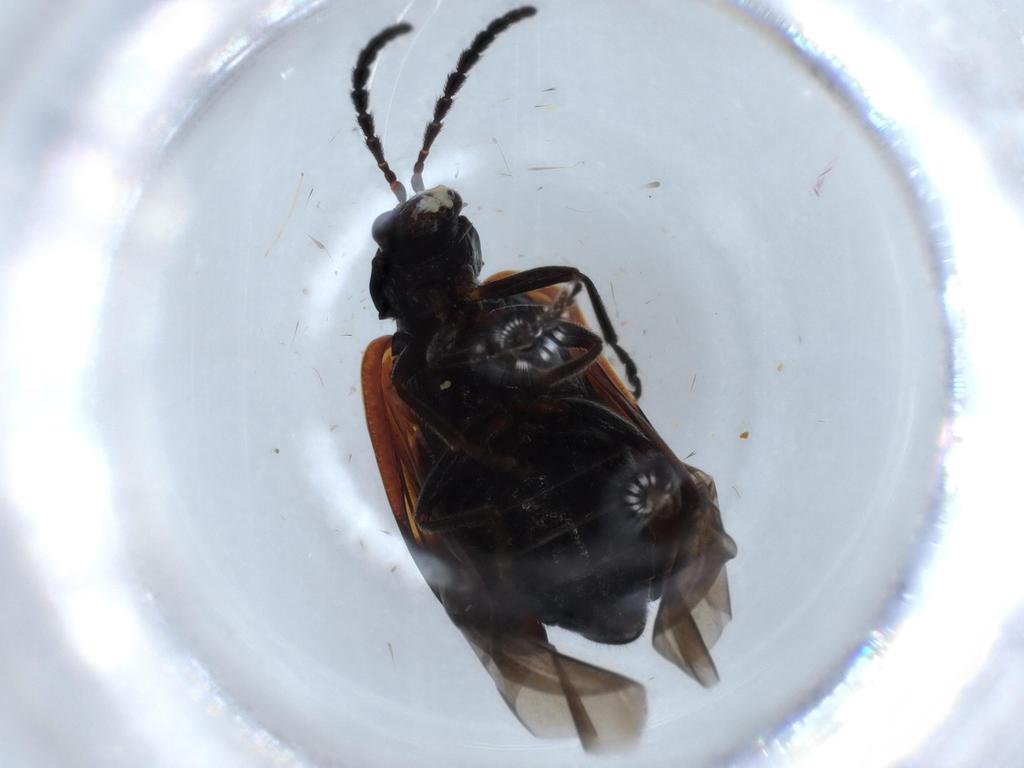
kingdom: Animalia
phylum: Arthropoda
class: Insecta
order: Coleoptera
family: Chrysomelidae
